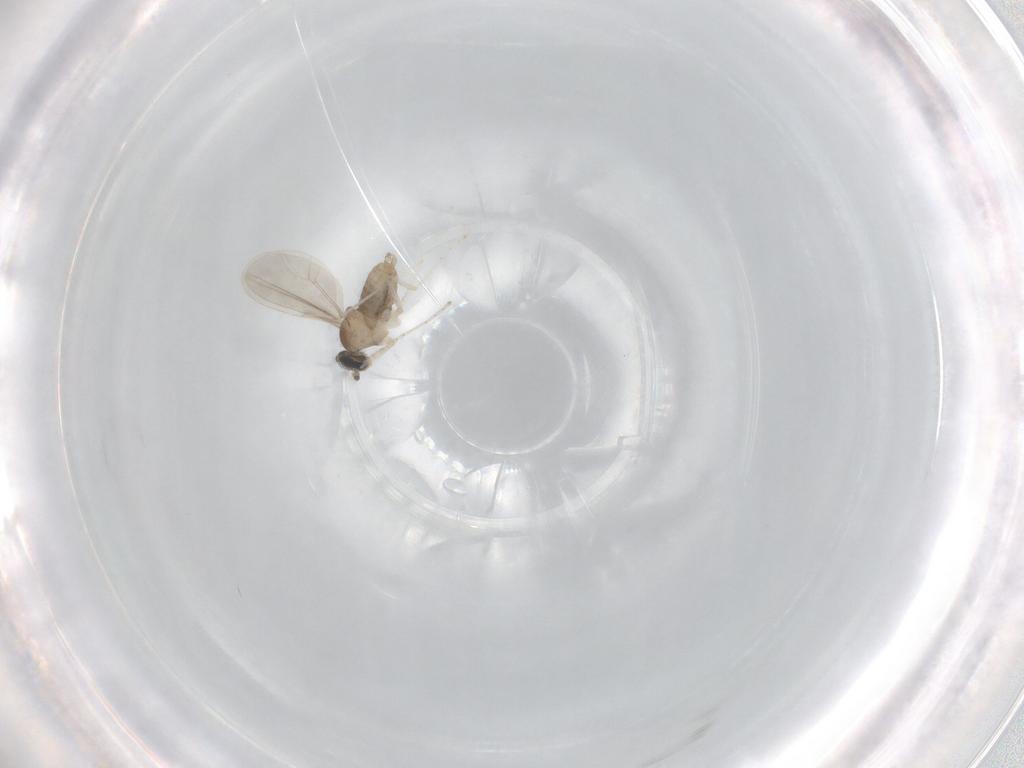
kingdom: Animalia
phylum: Arthropoda
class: Insecta
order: Diptera
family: Cecidomyiidae
